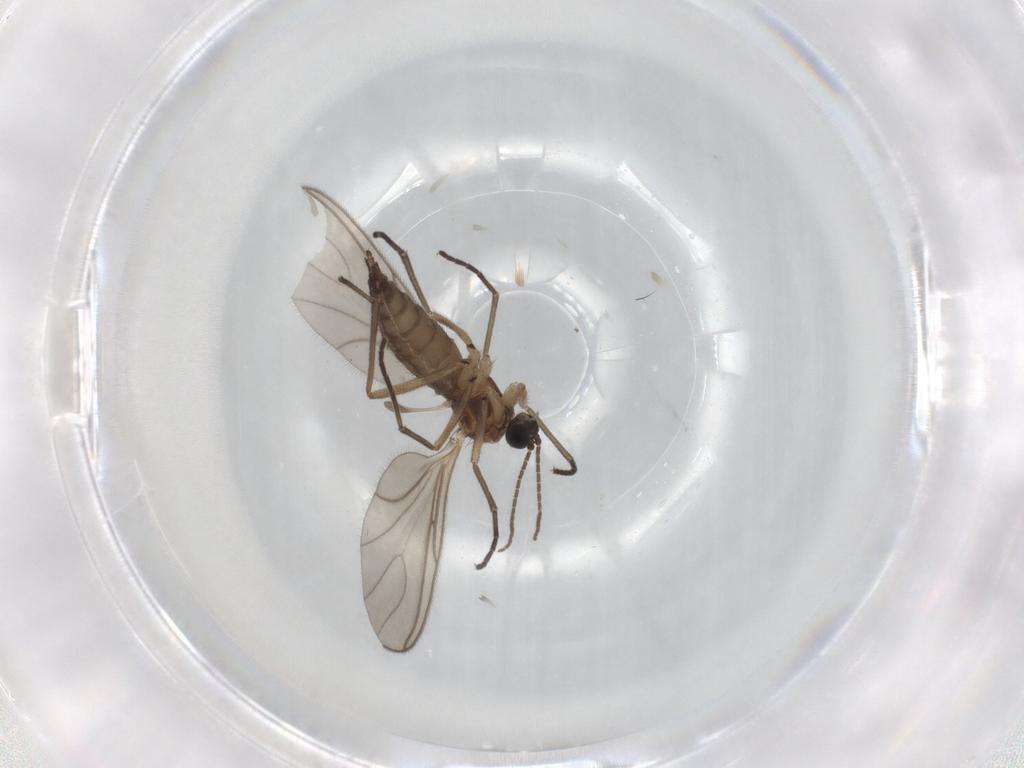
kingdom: Animalia
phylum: Arthropoda
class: Insecta
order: Diptera
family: Sciaridae
